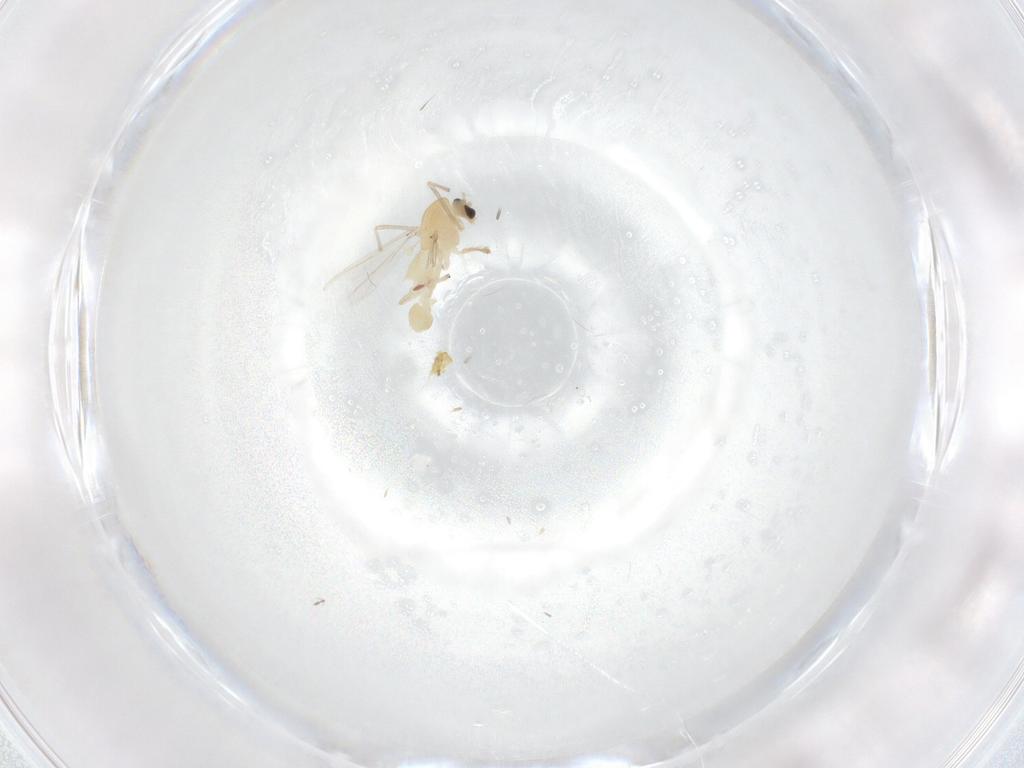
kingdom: Animalia
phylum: Arthropoda
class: Insecta
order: Diptera
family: Chironomidae
